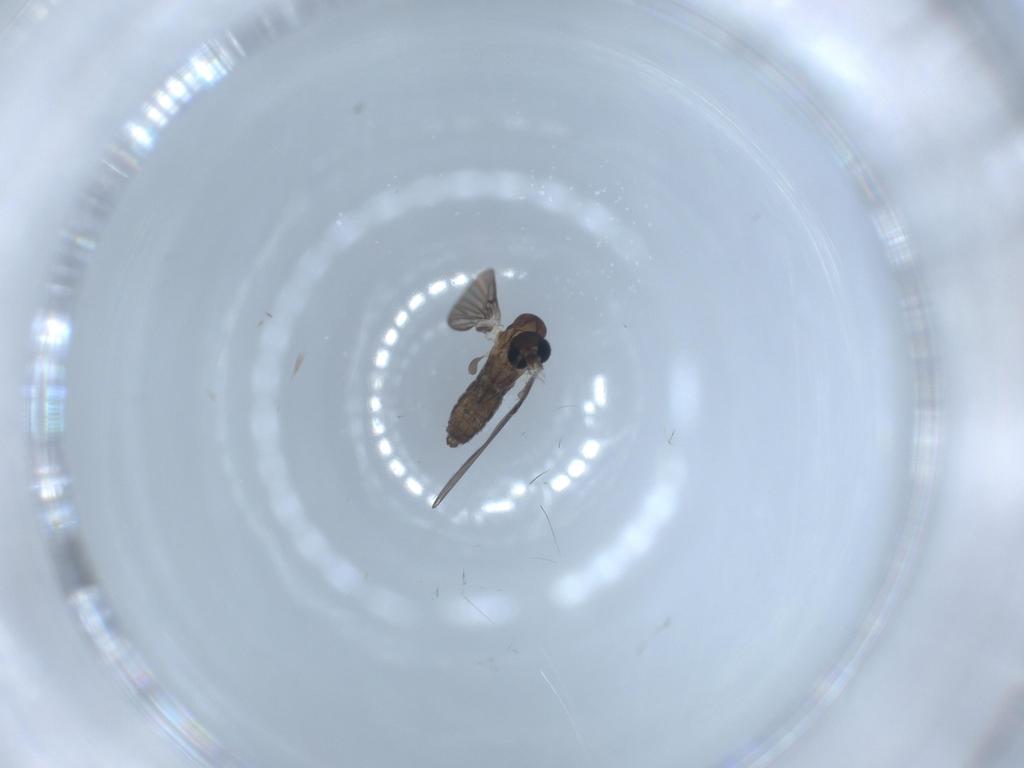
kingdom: Animalia
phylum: Arthropoda
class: Insecta
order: Diptera
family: Psychodidae
